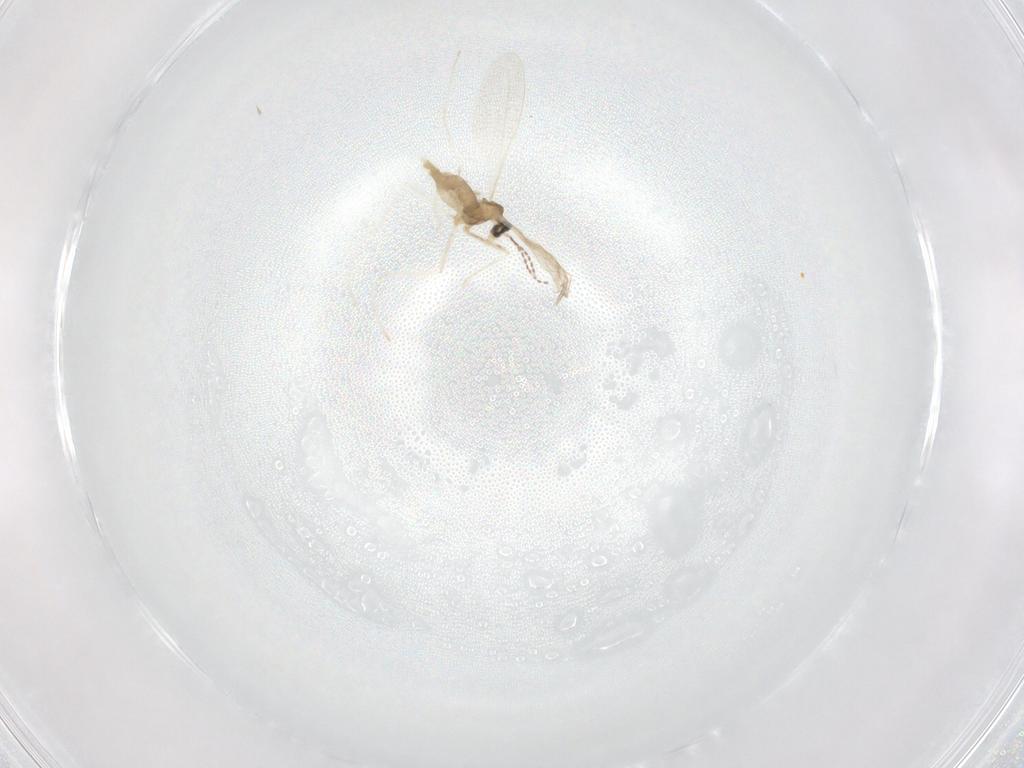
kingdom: Animalia
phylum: Arthropoda
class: Insecta
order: Diptera
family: Cecidomyiidae
